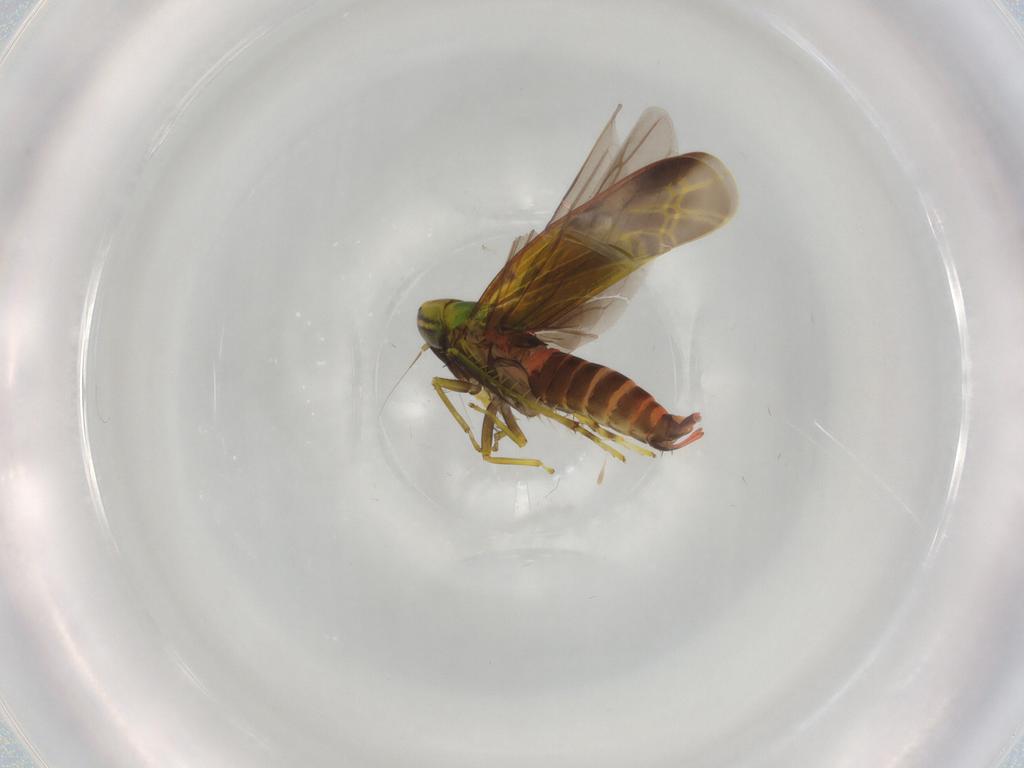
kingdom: Animalia
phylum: Arthropoda
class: Insecta
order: Hemiptera
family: Cicadellidae
